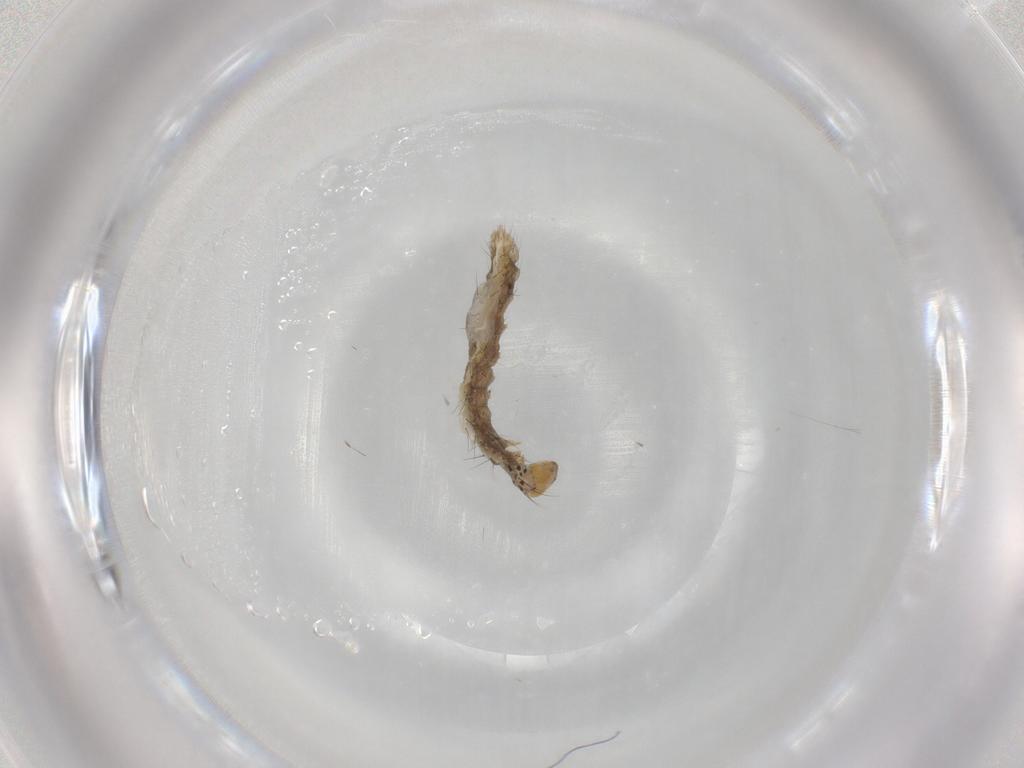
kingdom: Animalia
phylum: Arthropoda
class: Insecta
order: Lepidoptera
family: Bucculatricidae
